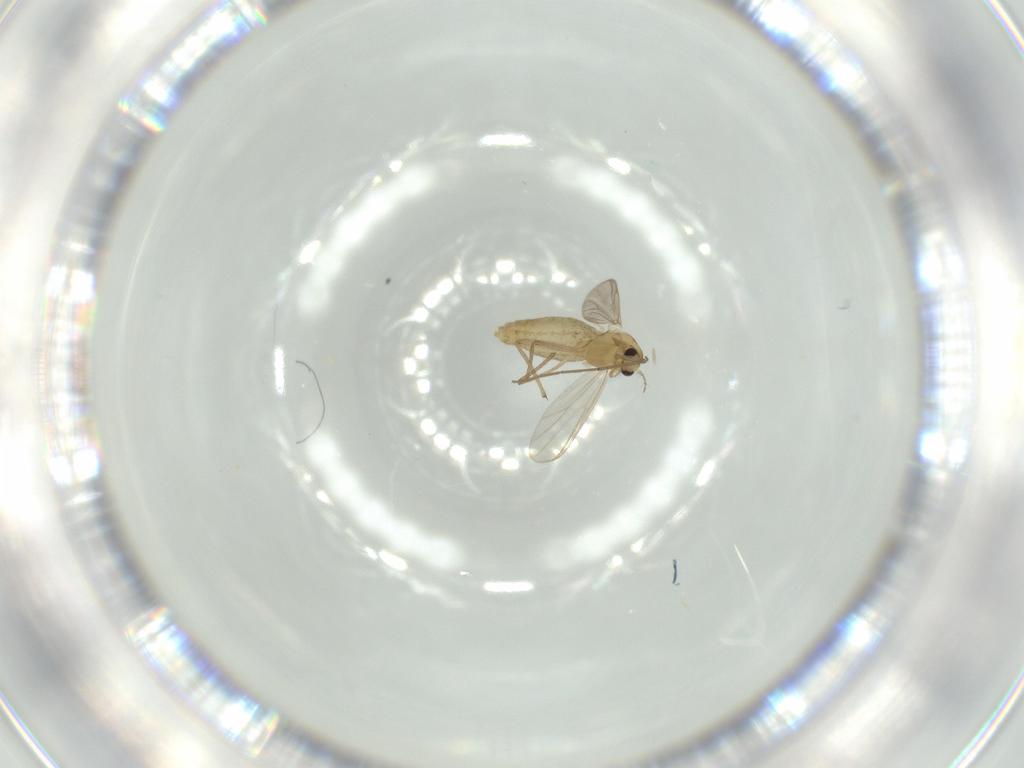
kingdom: Animalia
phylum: Arthropoda
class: Insecta
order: Diptera
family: Chironomidae
